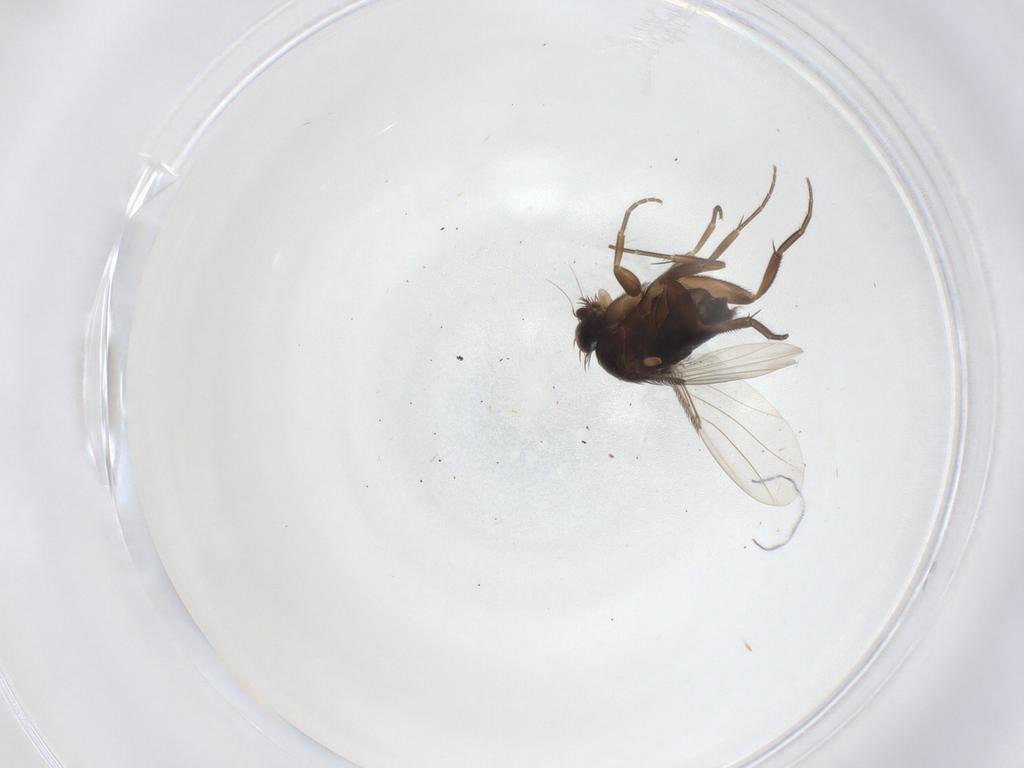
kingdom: Animalia
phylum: Arthropoda
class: Insecta
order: Diptera
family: Phoridae
